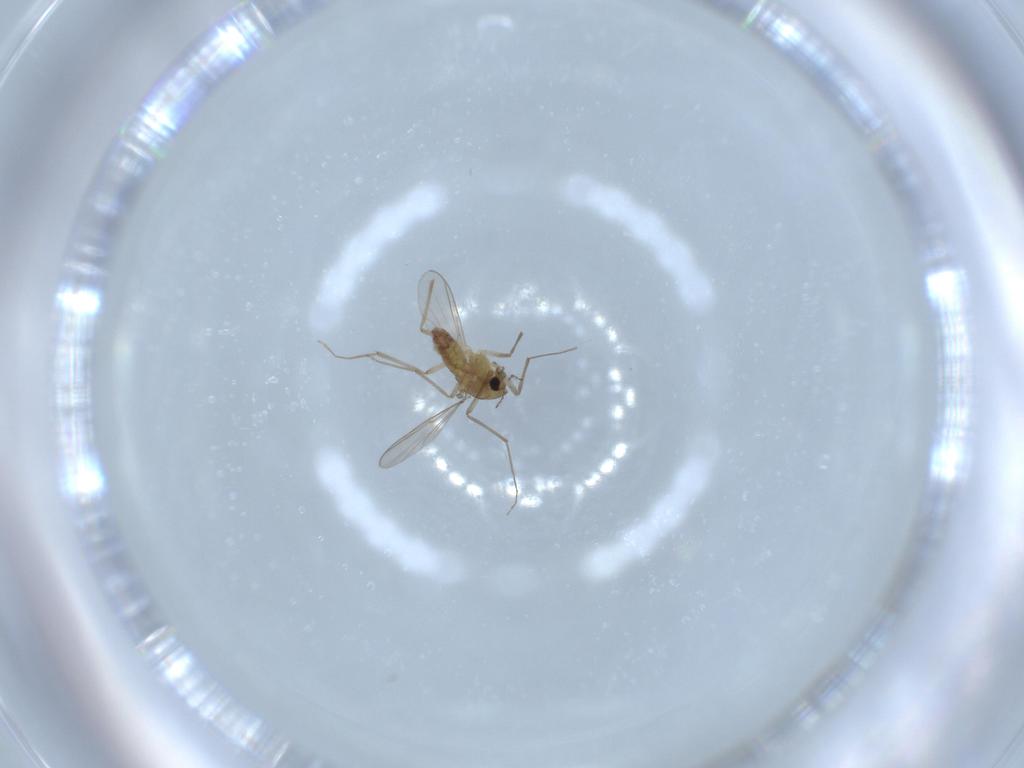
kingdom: Animalia
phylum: Arthropoda
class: Insecta
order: Diptera
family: Chironomidae
